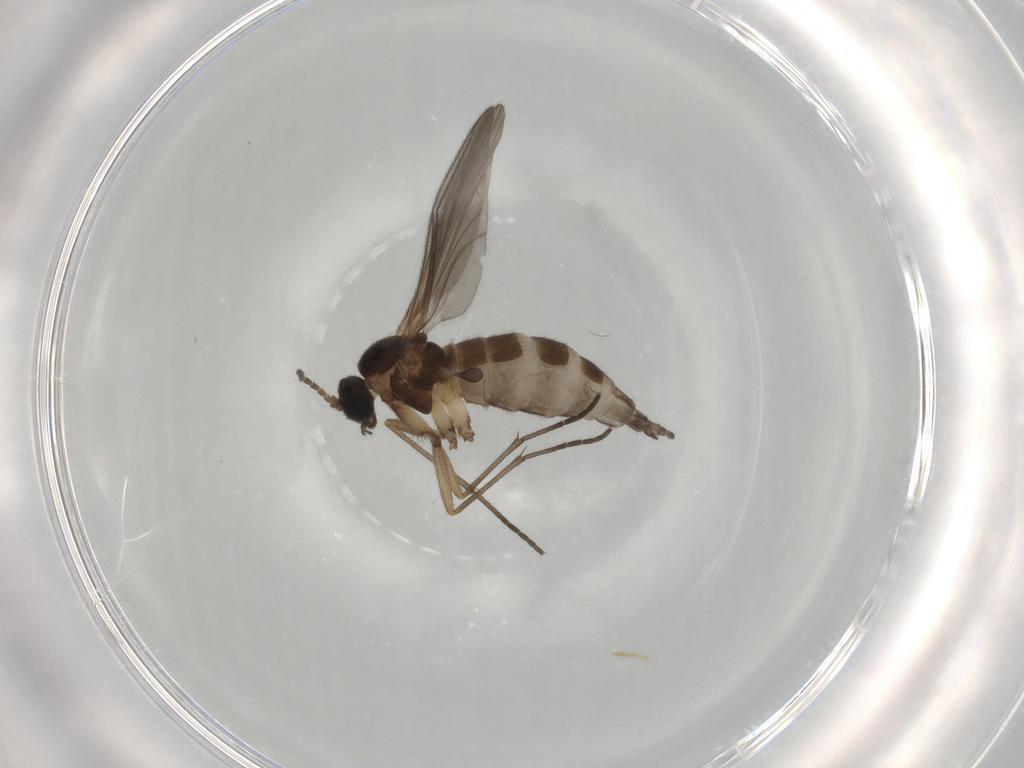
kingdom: Animalia
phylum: Arthropoda
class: Insecta
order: Diptera
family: Sciaridae
